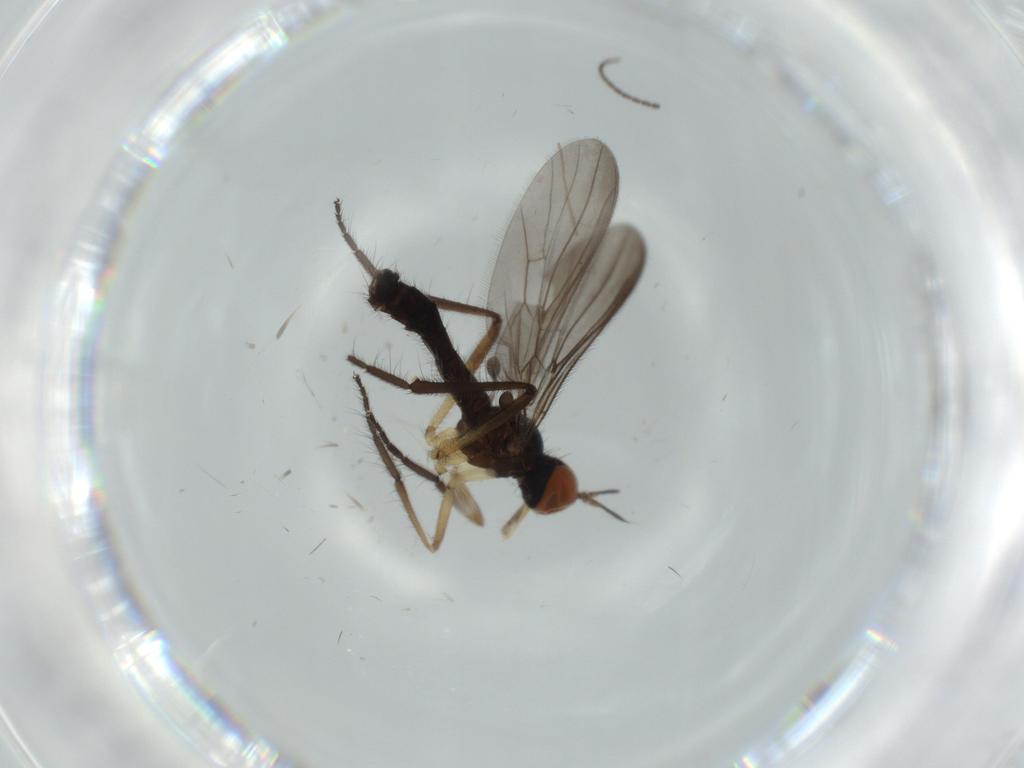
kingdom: Animalia
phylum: Arthropoda
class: Insecta
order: Diptera
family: Empididae
